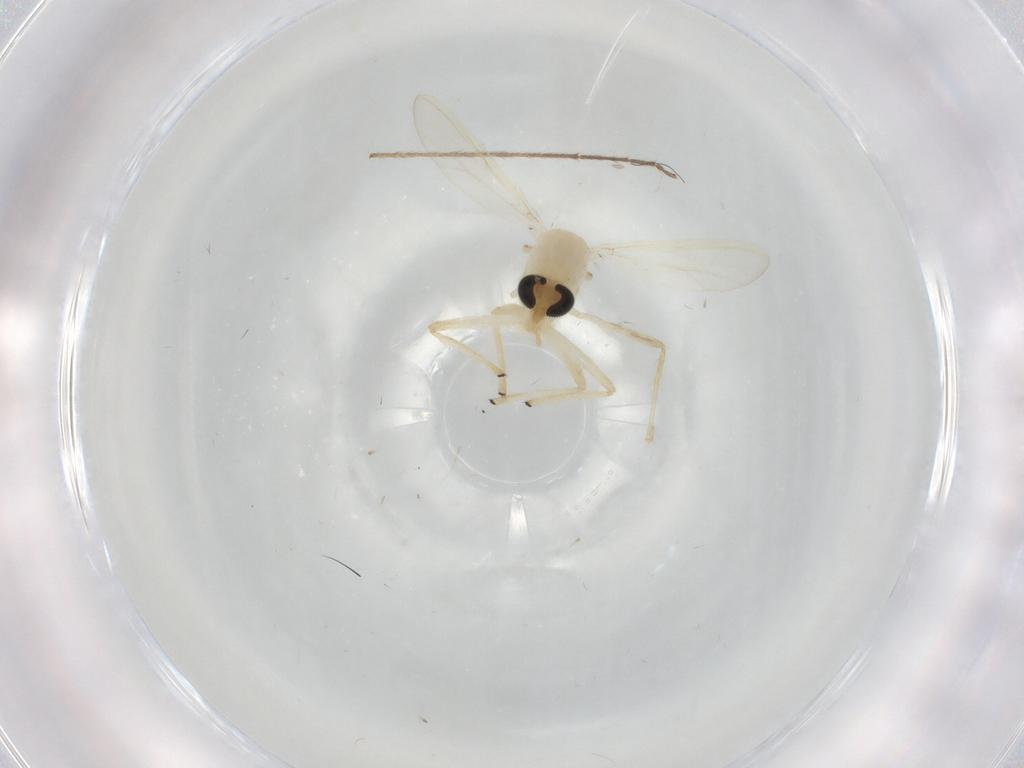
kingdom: Animalia
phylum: Arthropoda
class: Insecta
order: Diptera
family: Chironomidae
